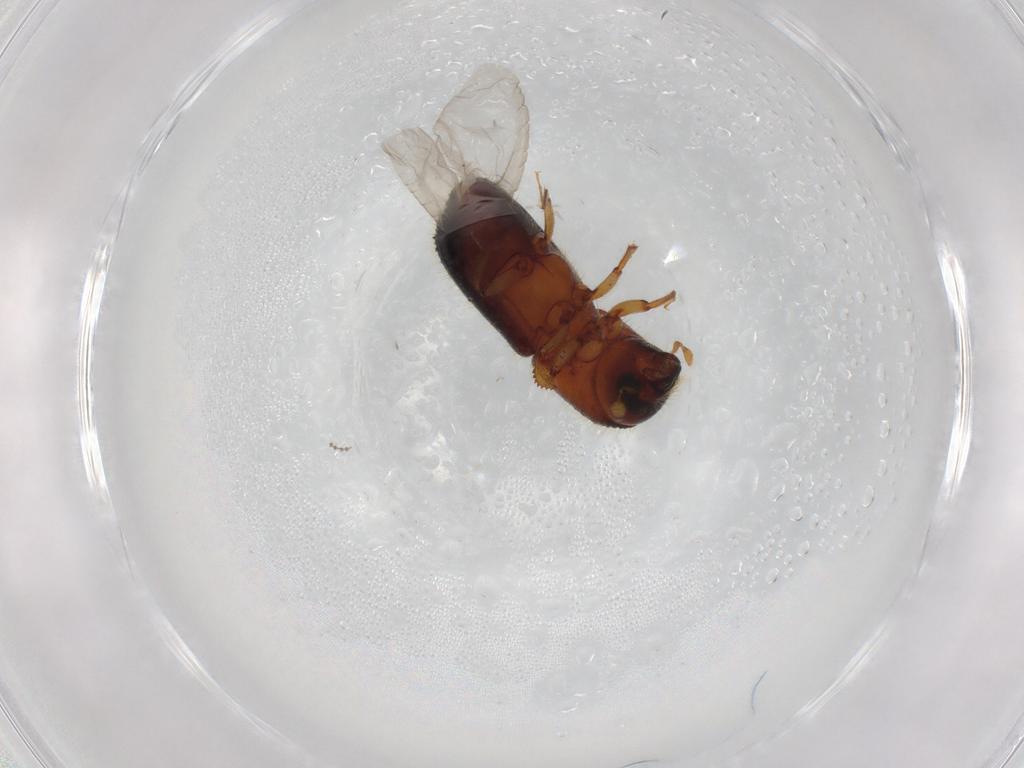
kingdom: Animalia
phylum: Arthropoda
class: Insecta
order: Coleoptera
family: Curculionidae
